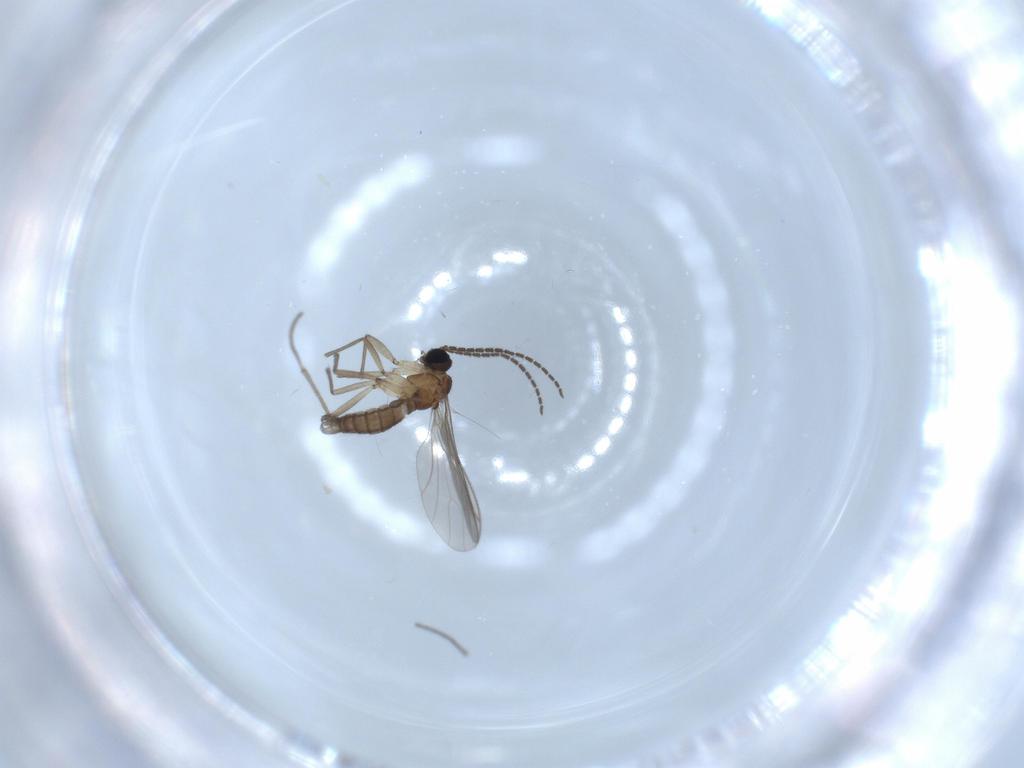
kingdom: Animalia
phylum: Arthropoda
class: Insecta
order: Diptera
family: Sciaridae
